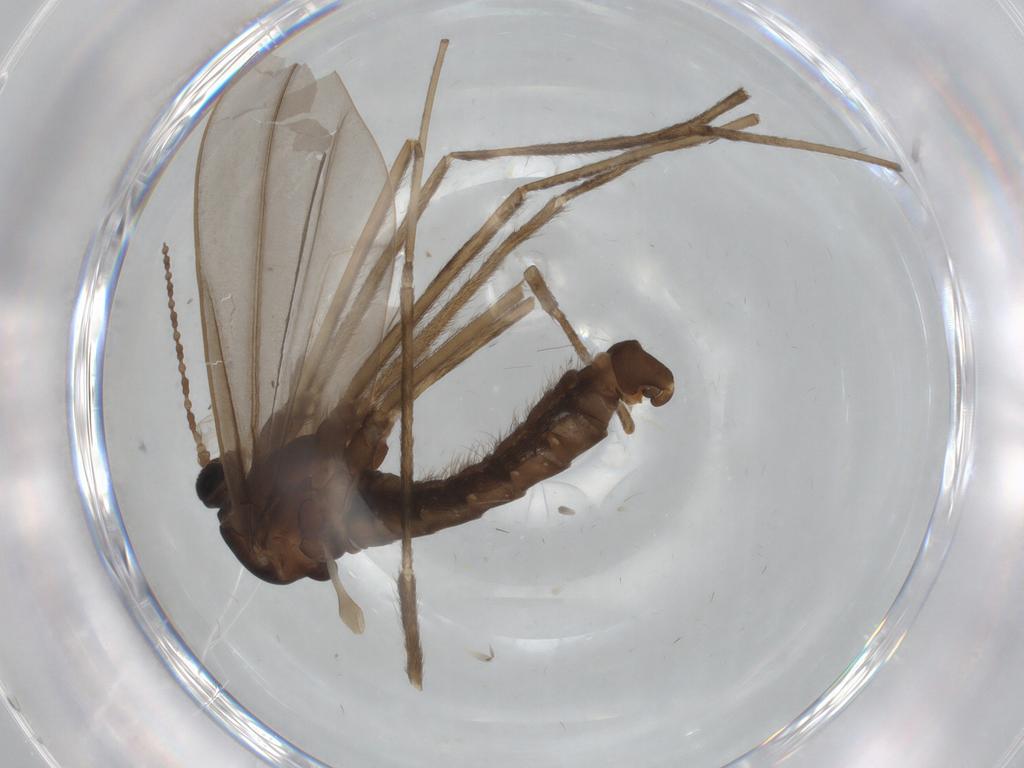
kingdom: Animalia
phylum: Arthropoda
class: Insecta
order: Diptera
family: Chironomidae
